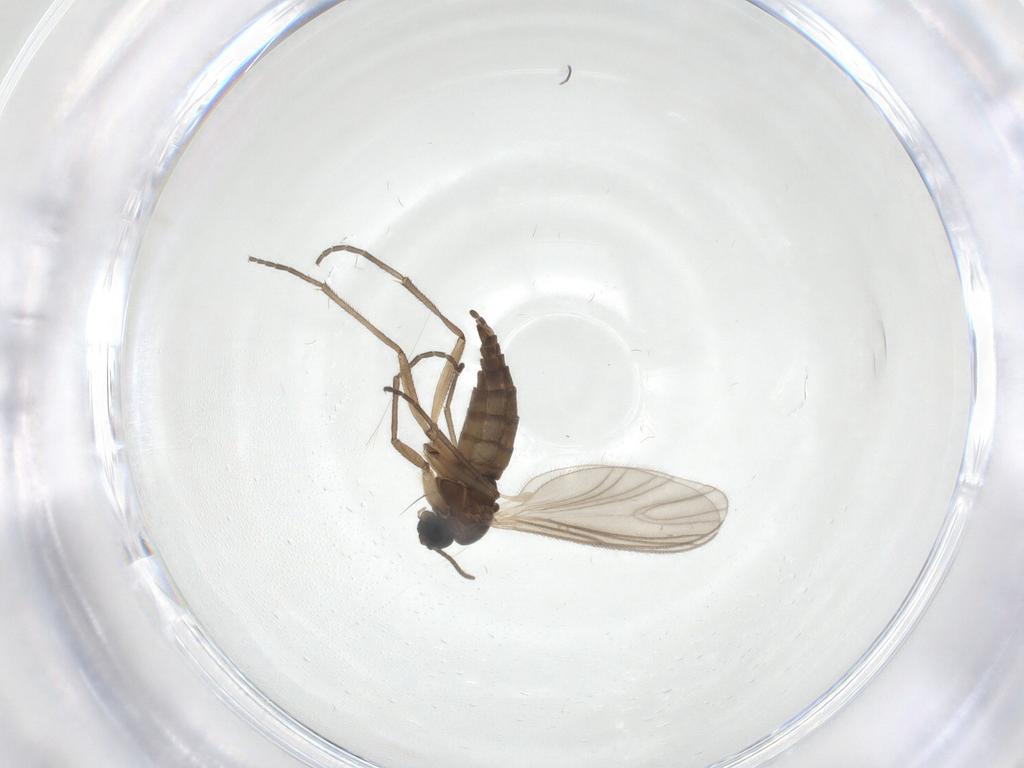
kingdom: Animalia
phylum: Arthropoda
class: Insecta
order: Diptera
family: Sciaridae
